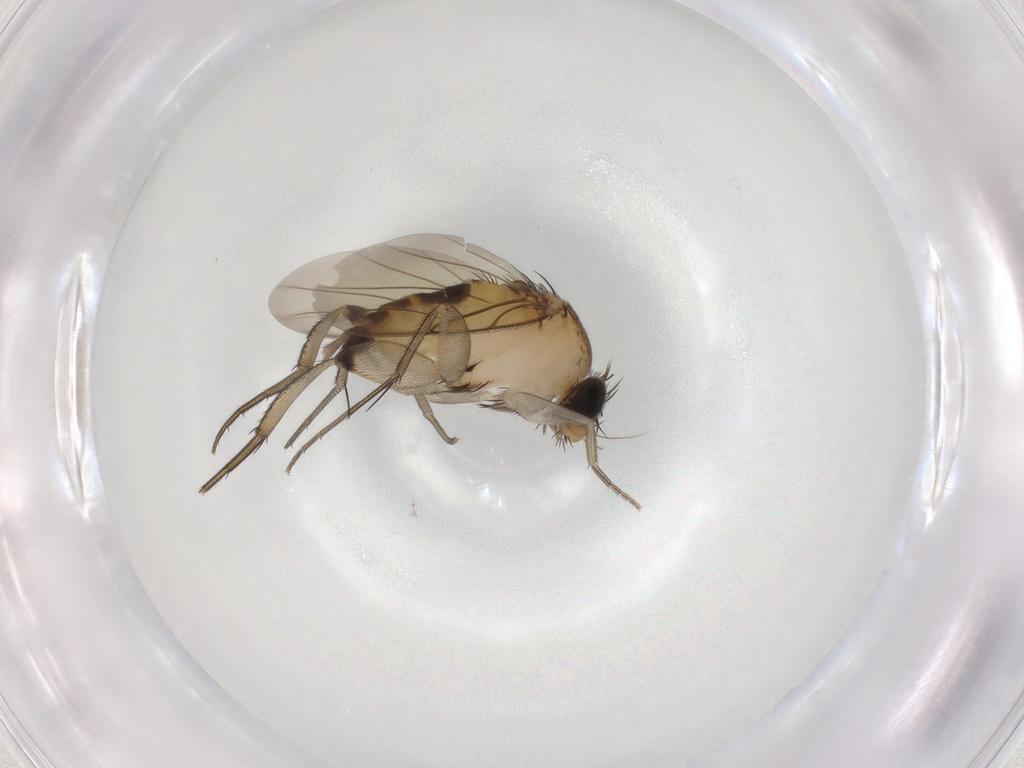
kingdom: Animalia
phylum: Arthropoda
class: Insecta
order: Diptera
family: Phoridae
